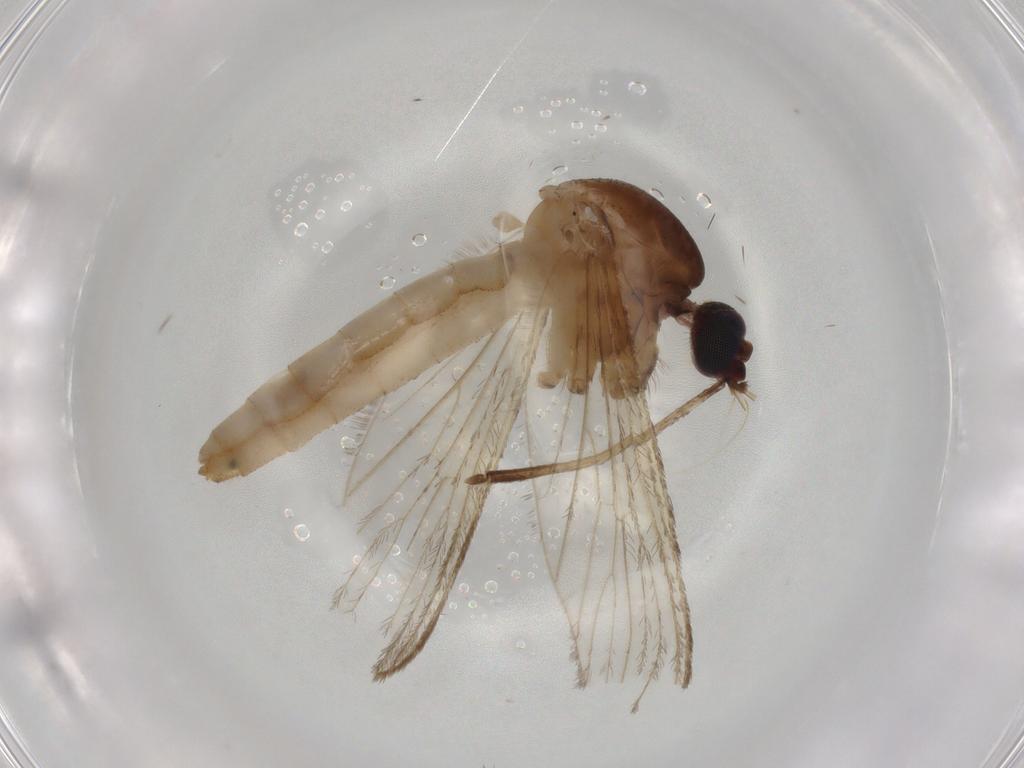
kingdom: Animalia
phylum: Arthropoda
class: Insecta
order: Diptera
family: Culicidae
